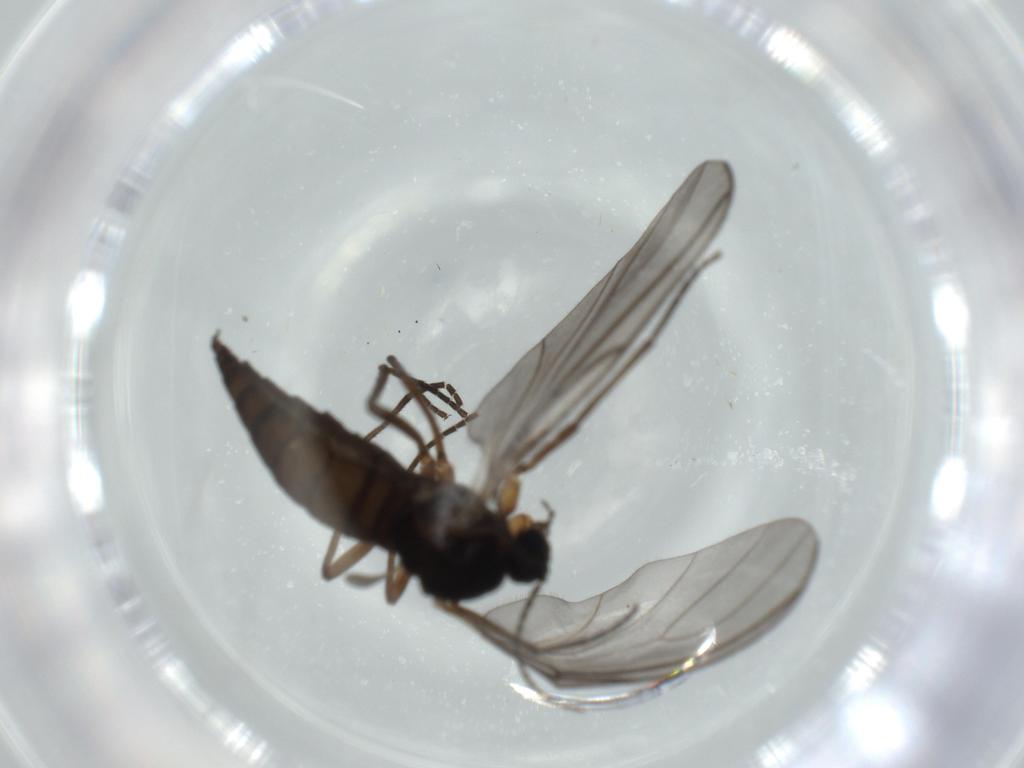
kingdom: Animalia
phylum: Arthropoda
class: Insecta
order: Diptera
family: Sciaridae
